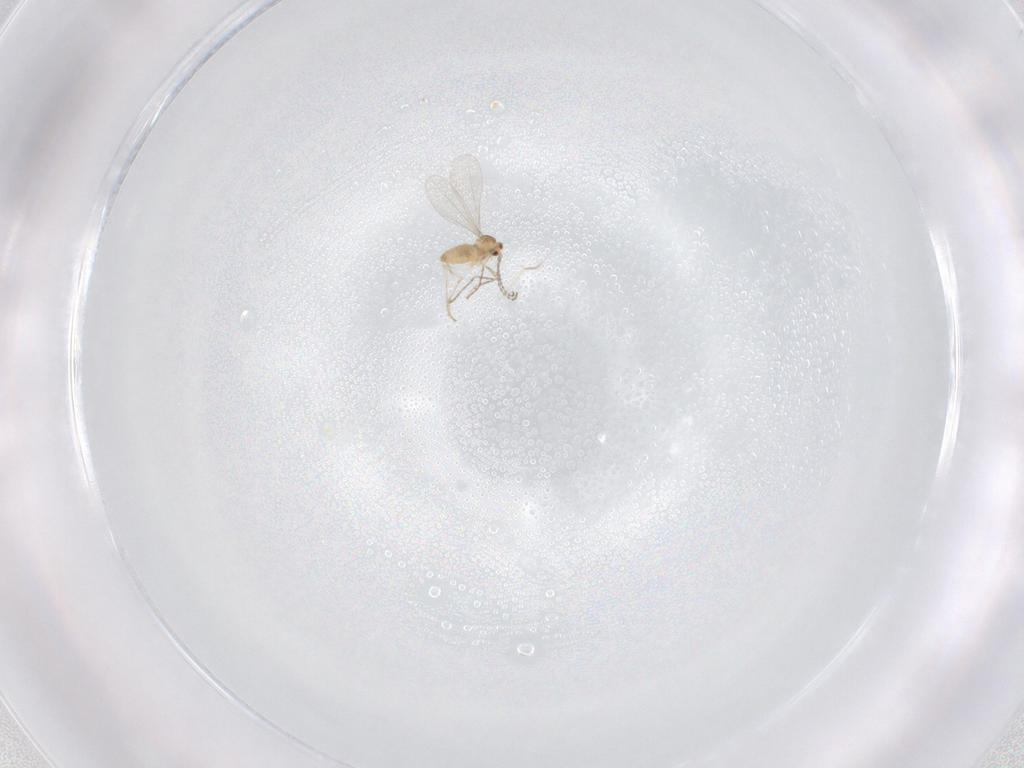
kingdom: Animalia
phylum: Arthropoda
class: Insecta
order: Diptera
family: Cecidomyiidae
